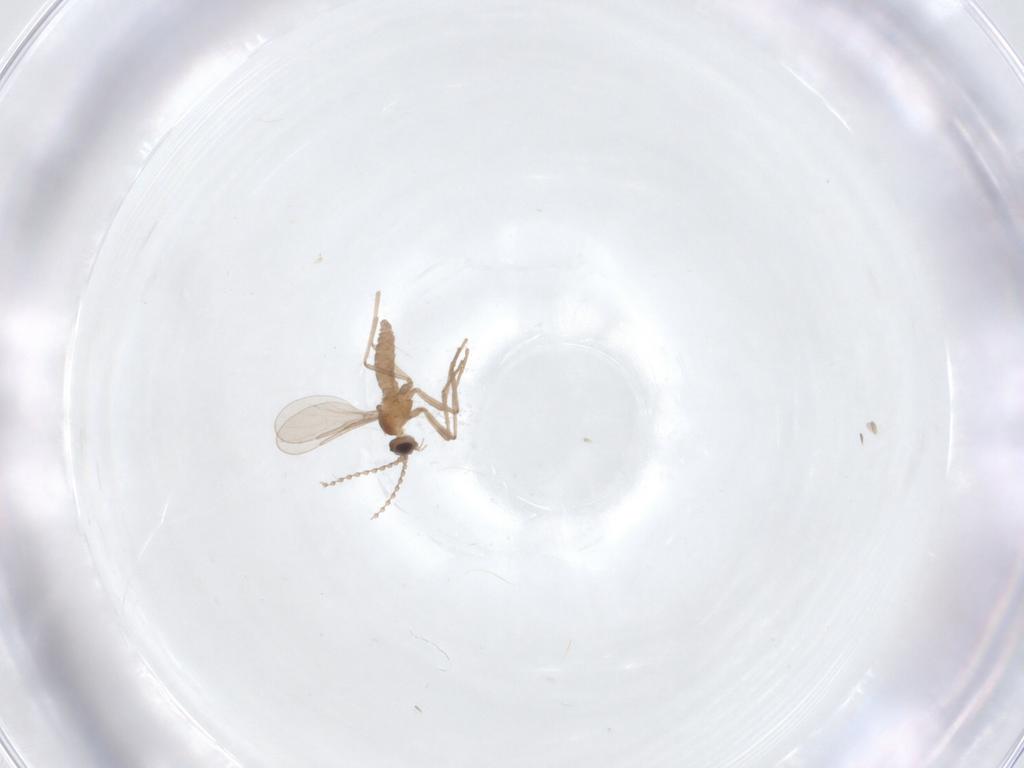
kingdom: Animalia
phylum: Arthropoda
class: Insecta
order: Diptera
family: Cecidomyiidae
